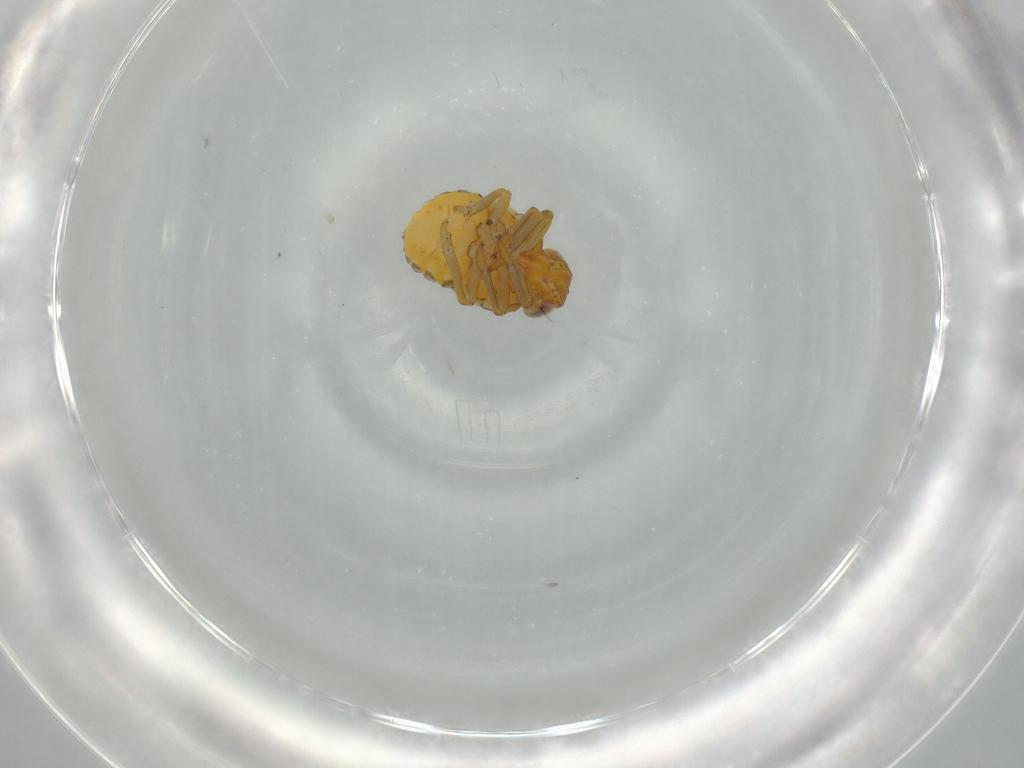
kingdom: Animalia
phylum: Arthropoda
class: Insecta
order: Hemiptera
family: Issidae
